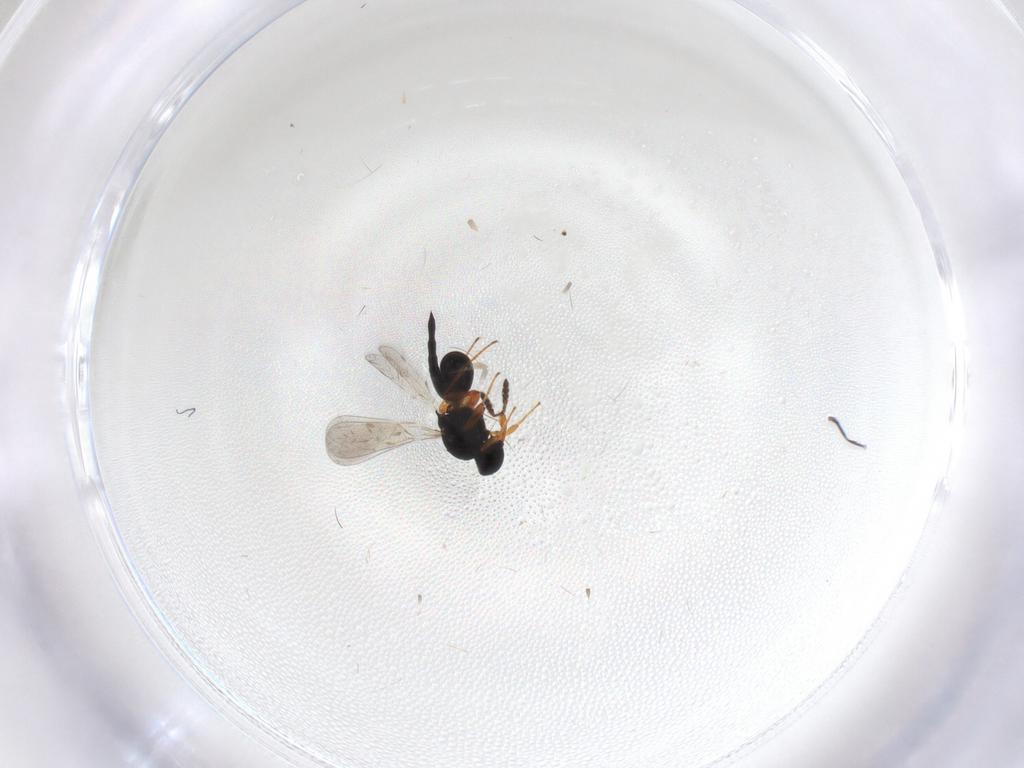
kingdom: Animalia
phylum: Arthropoda
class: Insecta
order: Hymenoptera
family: Platygastridae
